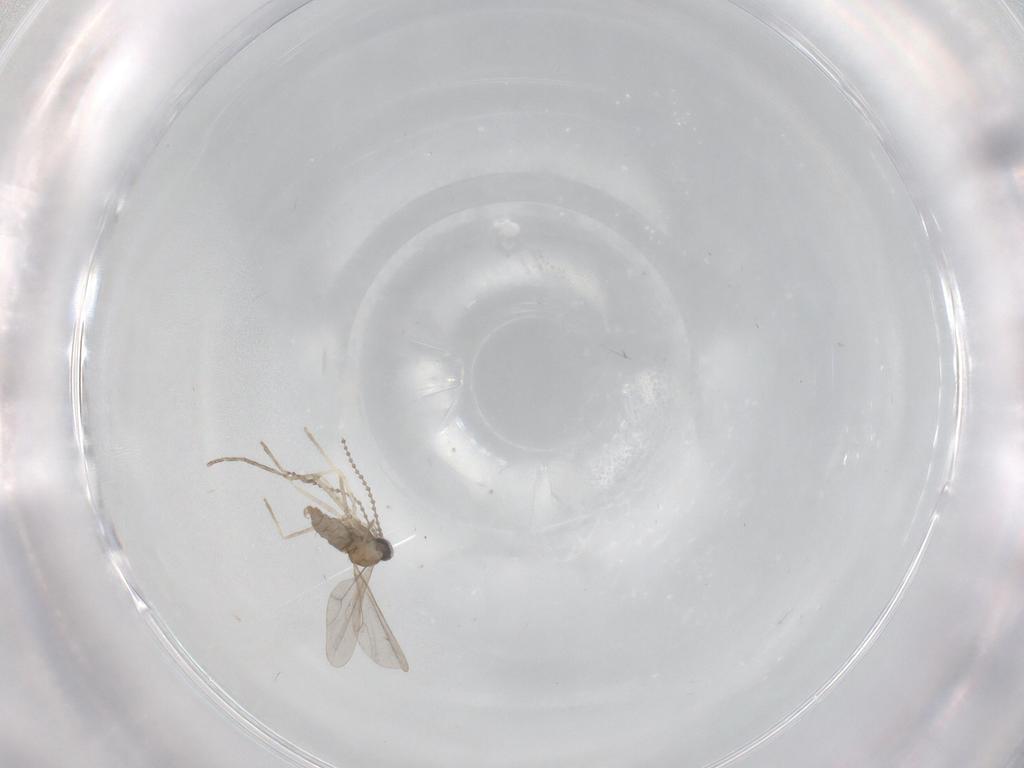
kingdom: Animalia
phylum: Arthropoda
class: Insecta
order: Diptera
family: Cecidomyiidae
